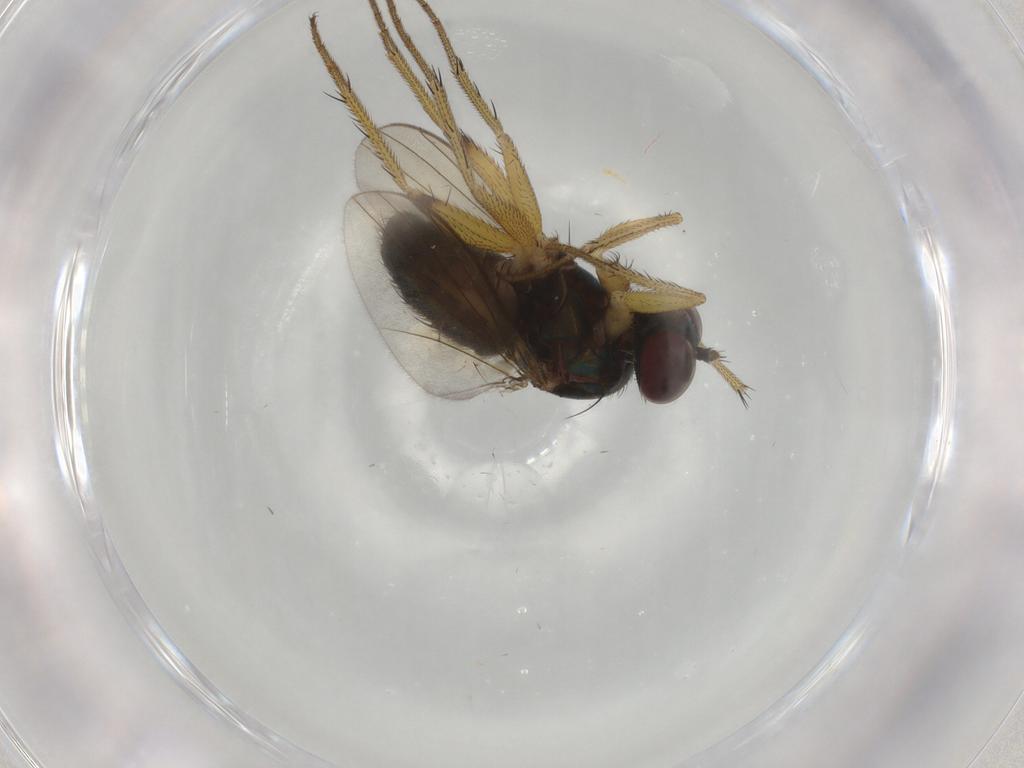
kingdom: Animalia
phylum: Arthropoda
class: Insecta
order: Diptera
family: Dolichopodidae
